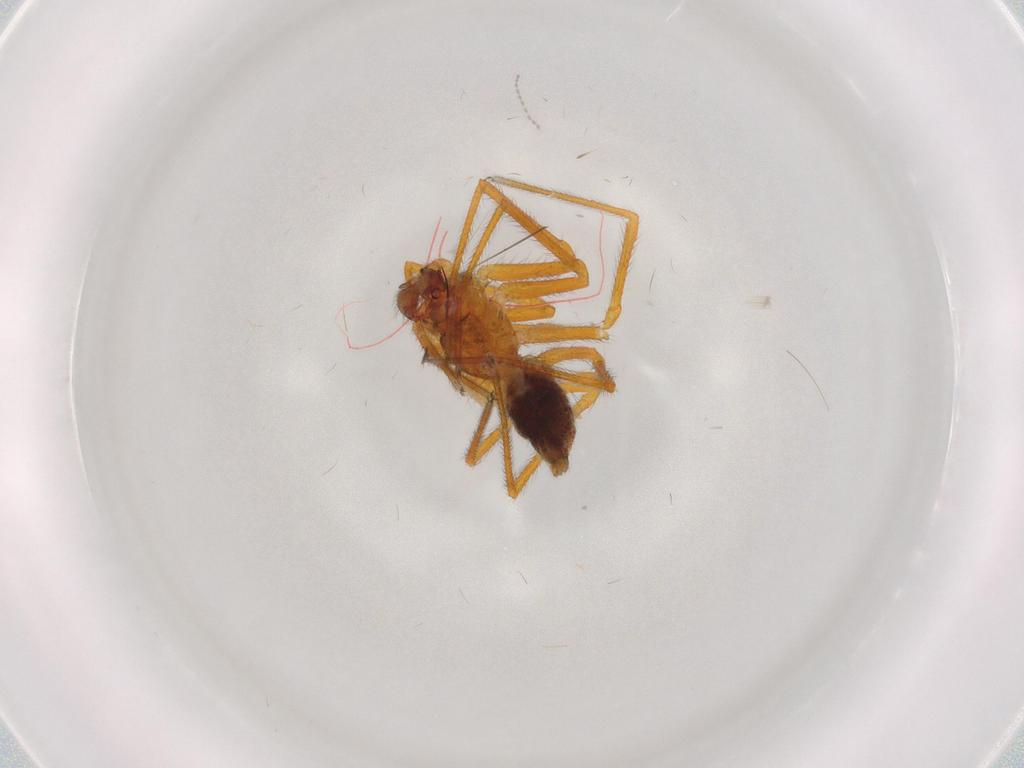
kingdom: Animalia
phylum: Arthropoda
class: Arachnida
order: Araneae
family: Linyphiidae
